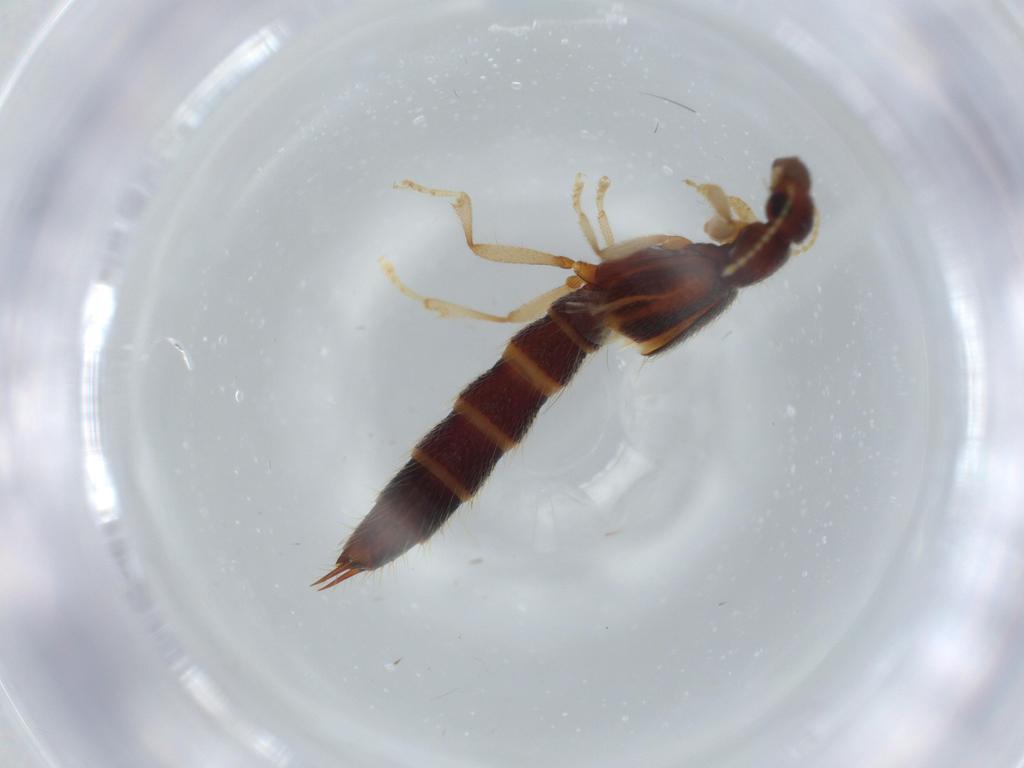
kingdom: Animalia
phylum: Arthropoda
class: Insecta
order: Coleoptera
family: Staphylinidae
